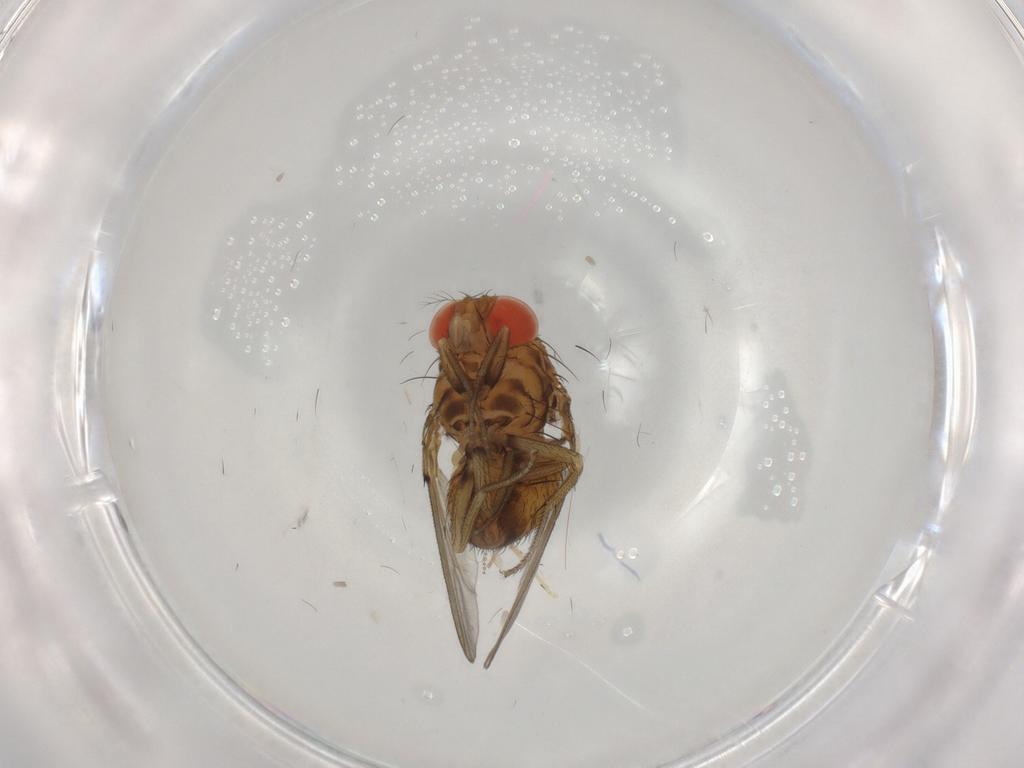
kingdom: Animalia
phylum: Arthropoda
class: Insecta
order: Diptera
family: Drosophilidae
